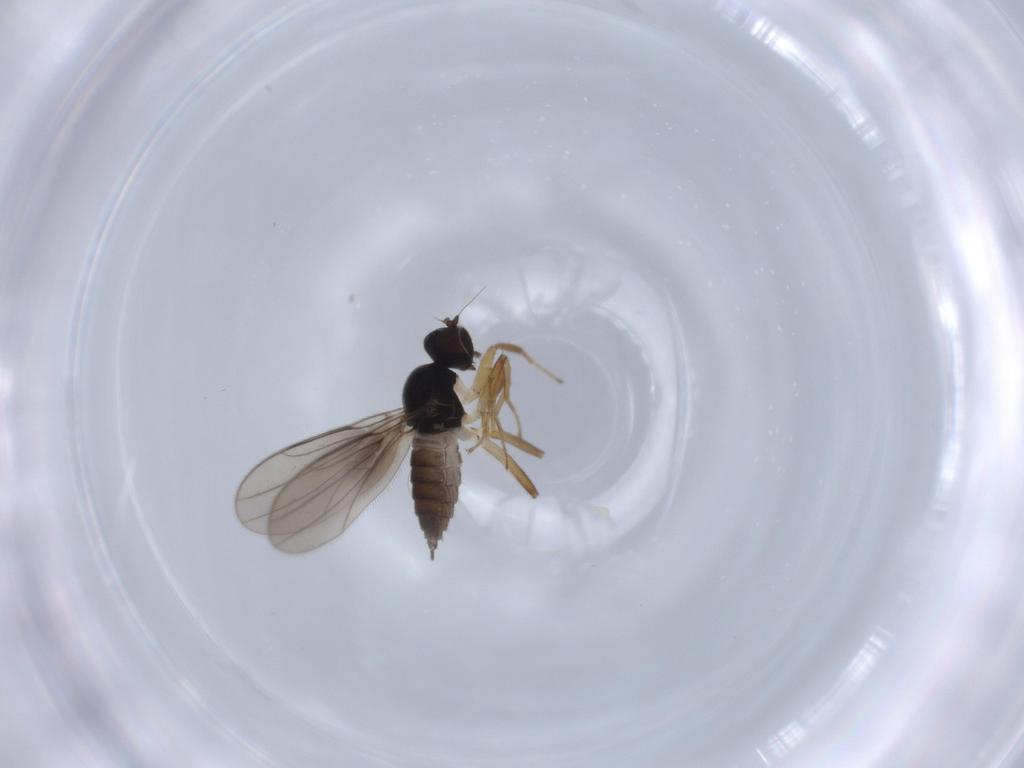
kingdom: Animalia
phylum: Arthropoda
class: Insecta
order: Diptera
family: Hybotidae
